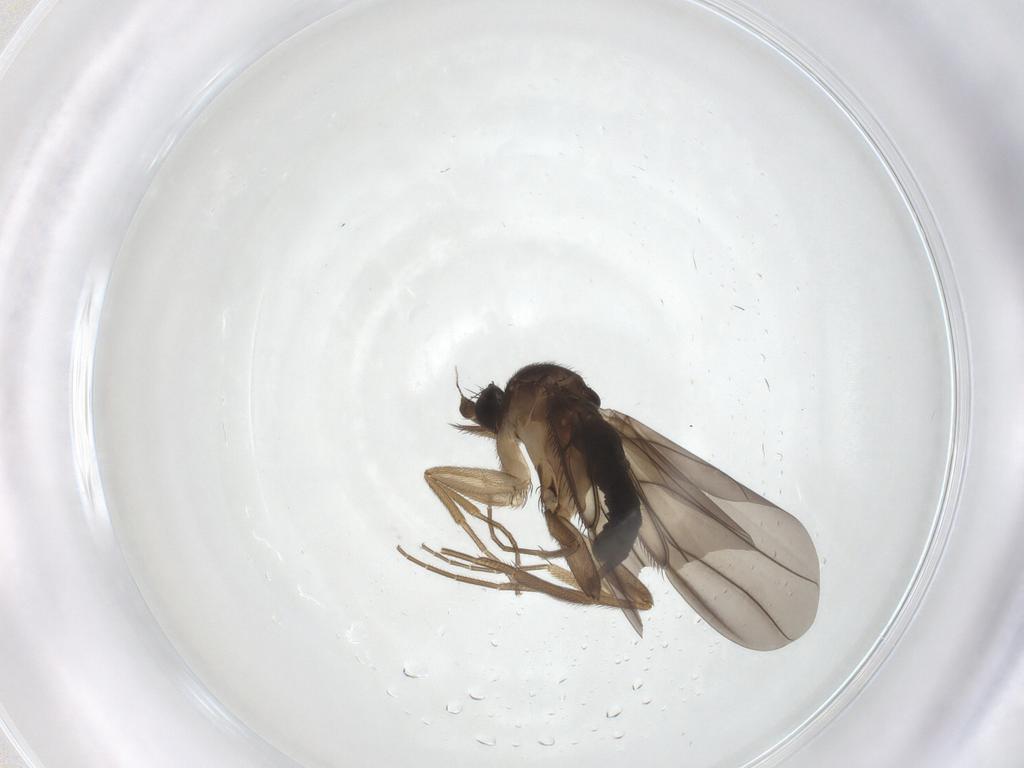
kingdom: Animalia
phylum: Arthropoda
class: Insecta
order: Diptera
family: Phoridae
